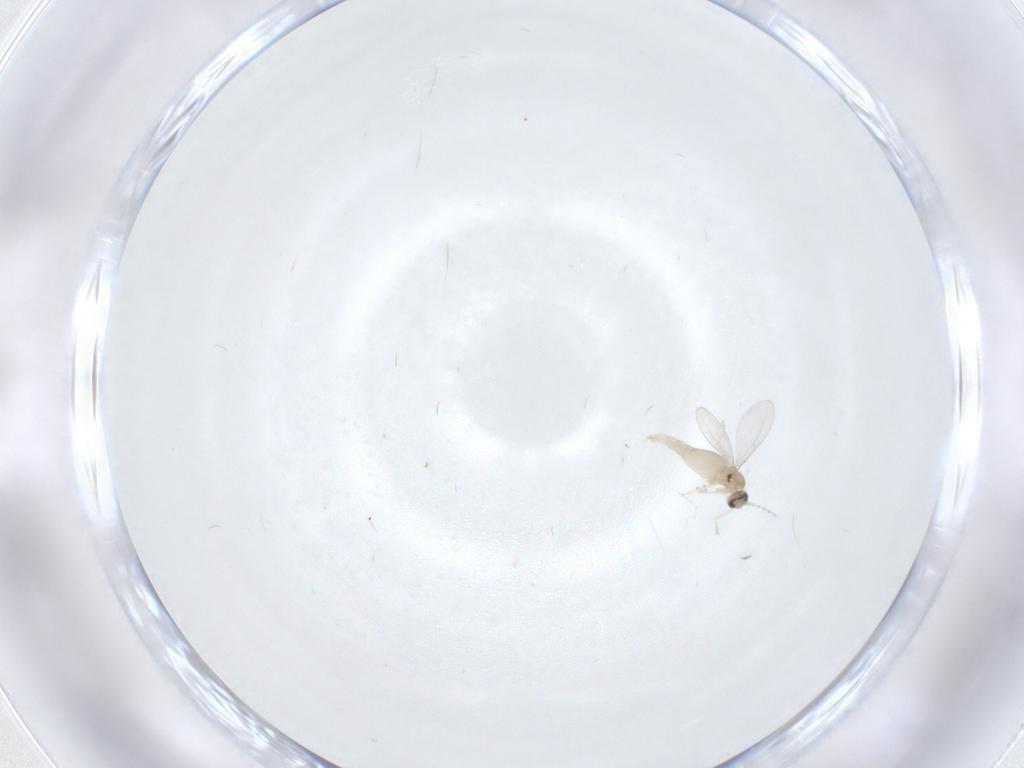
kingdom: Animalia
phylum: Arthropoda
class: Insecta
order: Diptera
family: Cecidomyiidae
